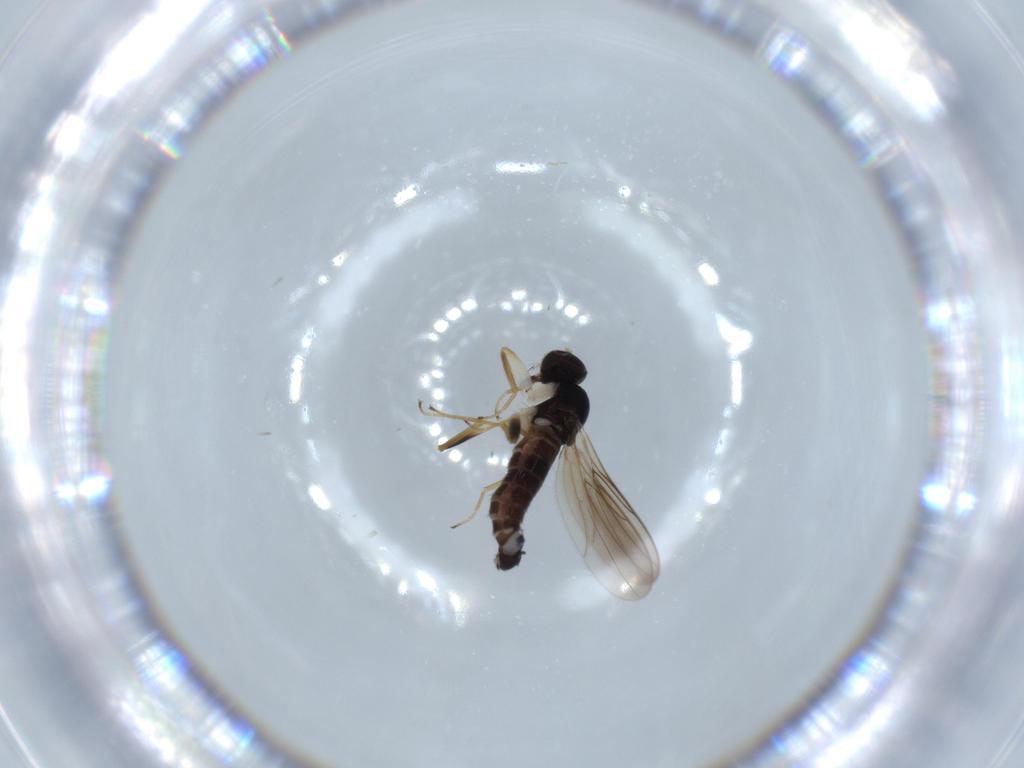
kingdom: Animalia
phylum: Arthropoda
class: Insecta
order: Diptera
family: Hybotidae
